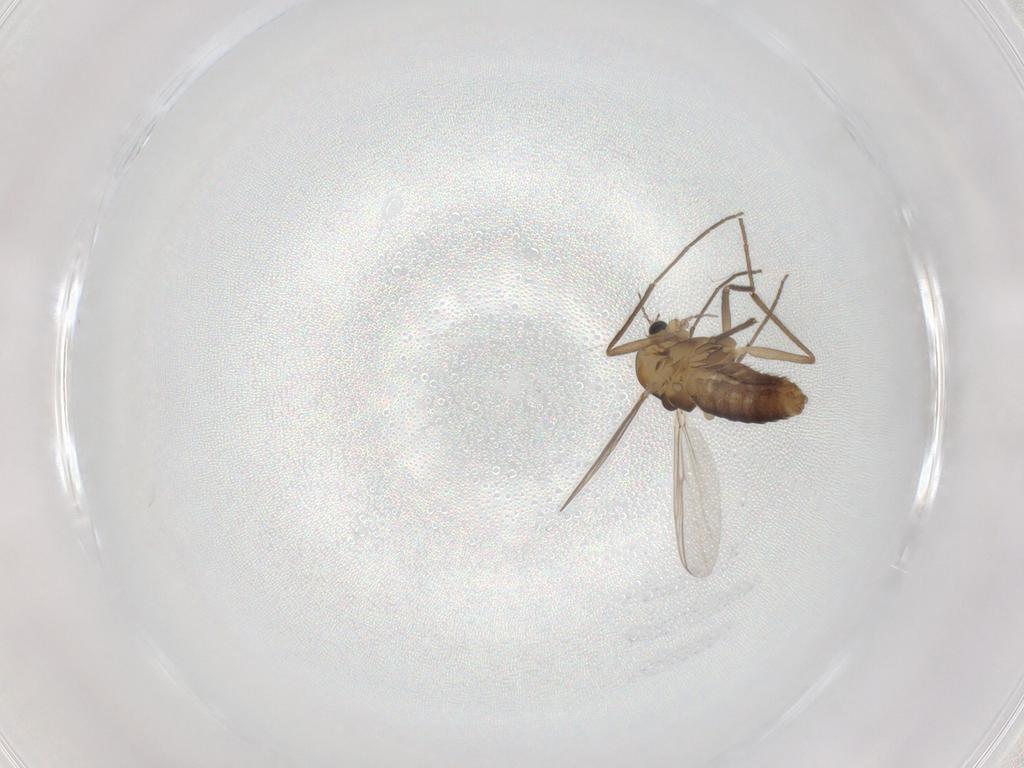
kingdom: Animalia
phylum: Arthropoda
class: Insecta
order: Diptera
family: Chironomidae
